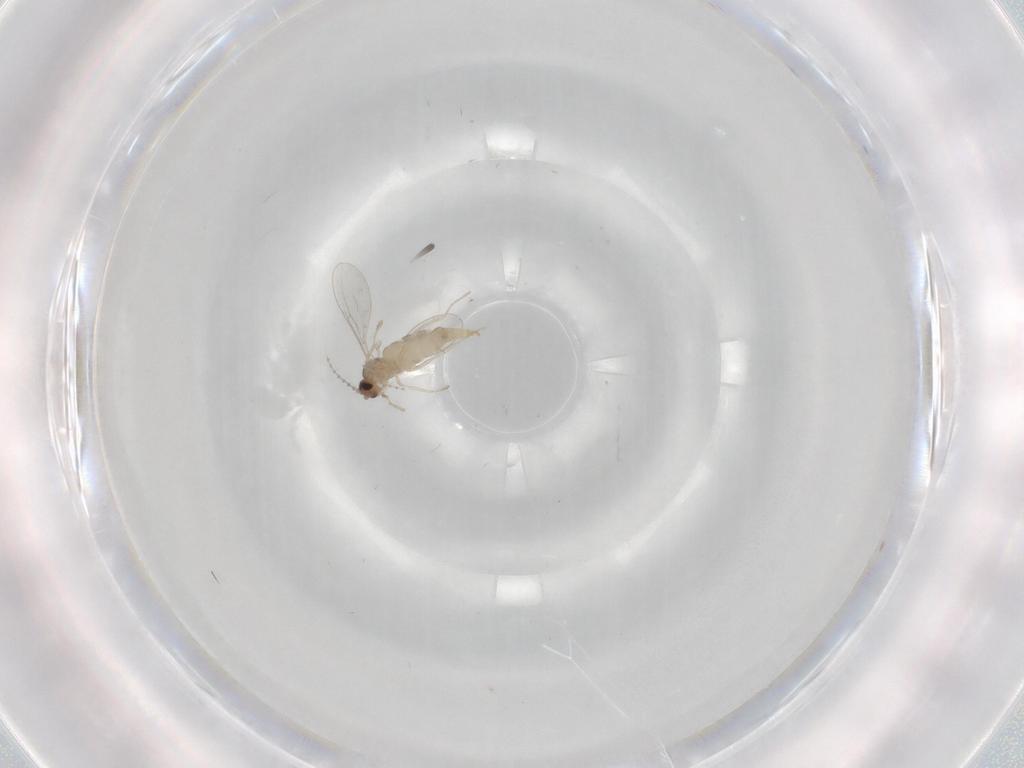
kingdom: Animalia
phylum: Arthropoda
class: Insecta
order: Diptera
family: Cecidomyiidae
